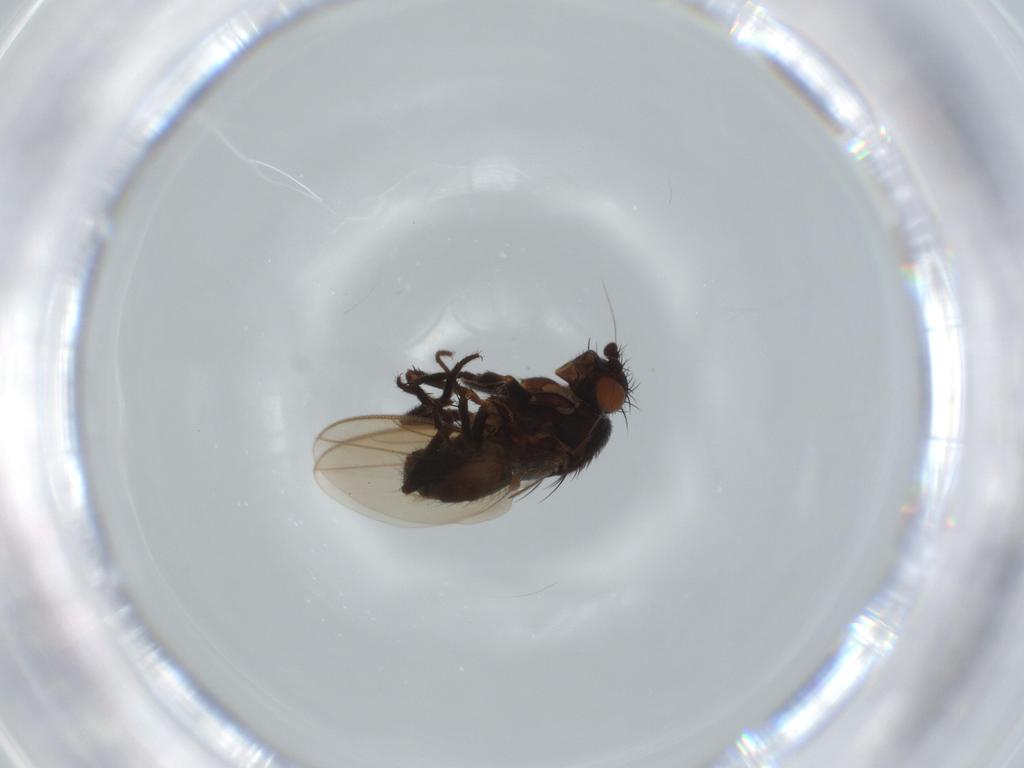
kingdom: Animalia
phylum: Arthropoda
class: Insecta
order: Diptera
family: Sphaeroceridae
